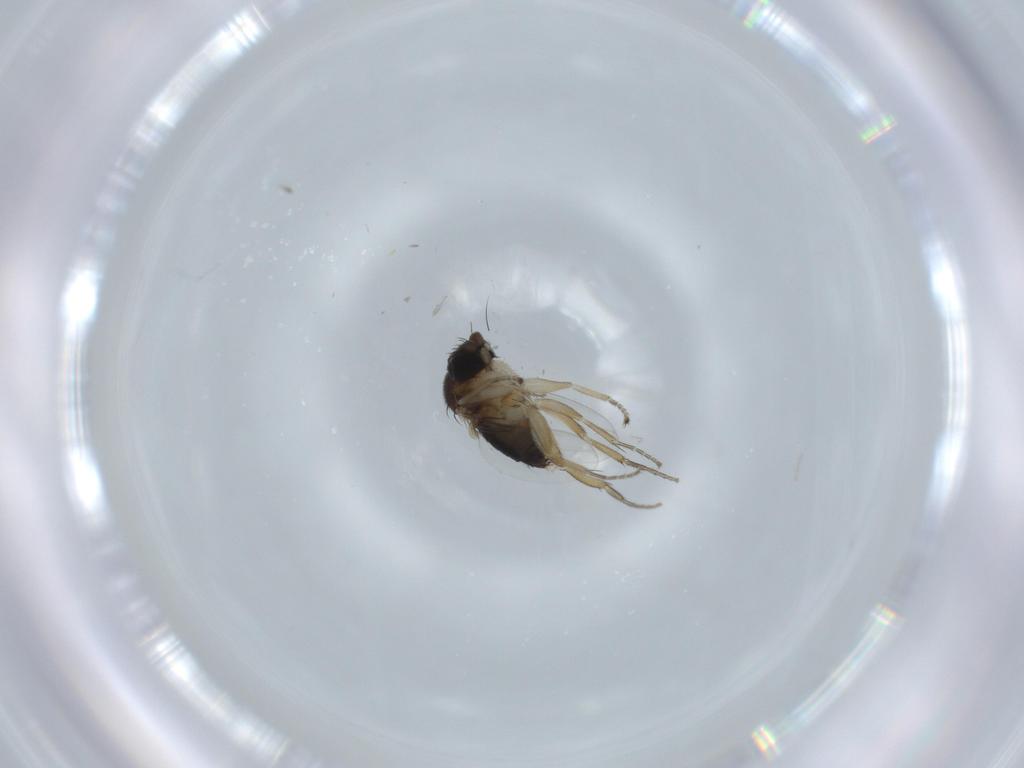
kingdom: Animalia
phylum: Arthropoda
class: Insecta
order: Diptera
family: Phoridae
